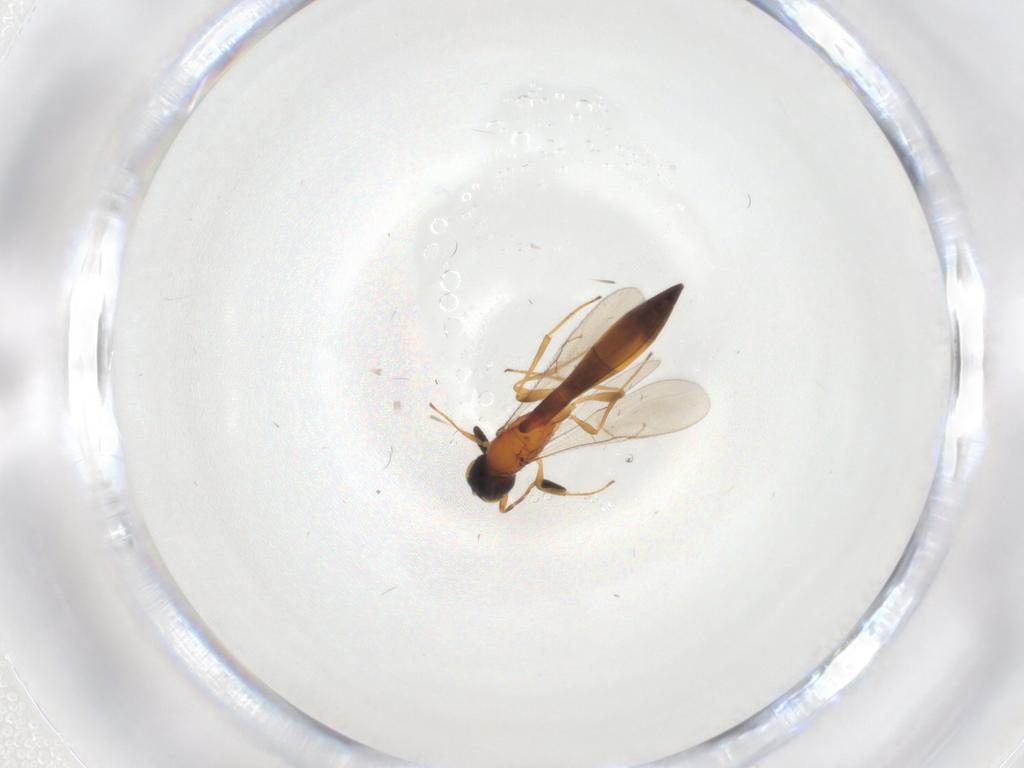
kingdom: Animalia
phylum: Arthropoda
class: Insecta
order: Hymenoptera
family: Scelionidae
